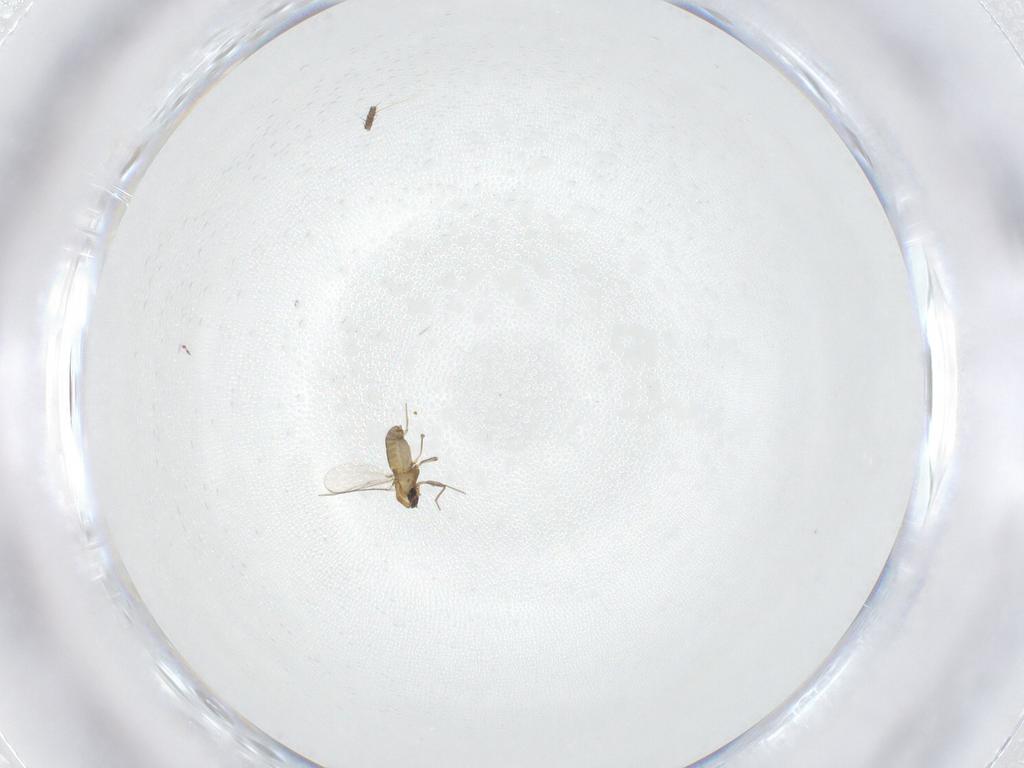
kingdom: Animalia
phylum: Arthropoda
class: Insecta
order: Diptera
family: Chironomidae
